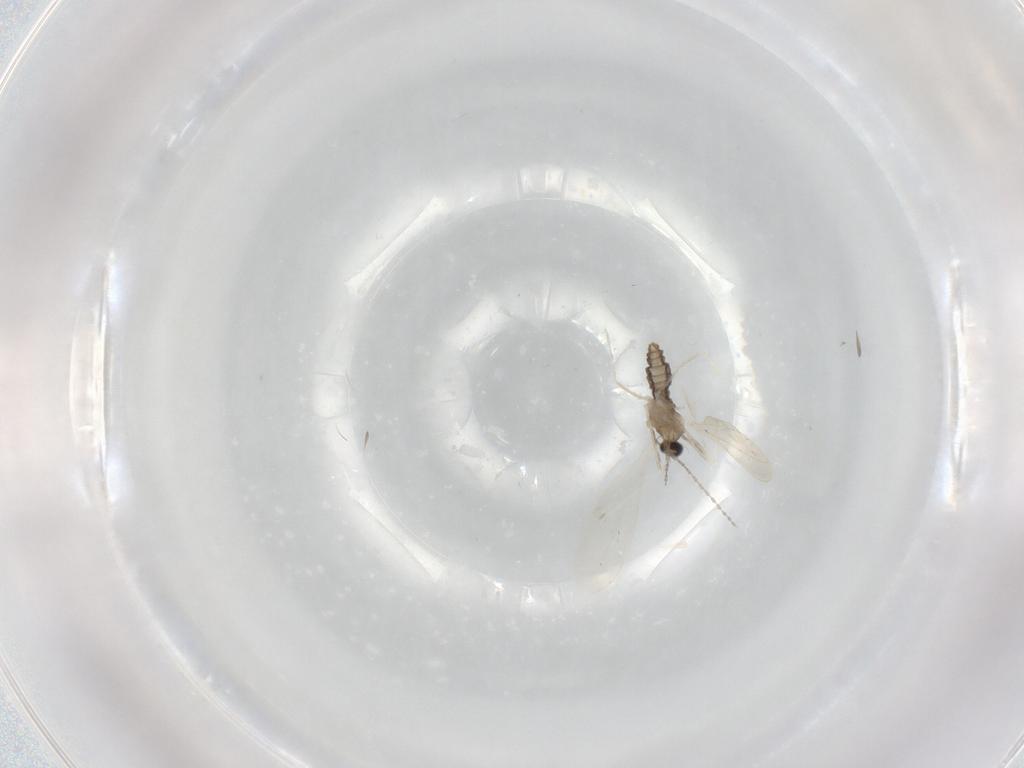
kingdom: Animalia
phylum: Arthropoda
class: Insecta
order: Diptera
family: Cecidomyiidae
